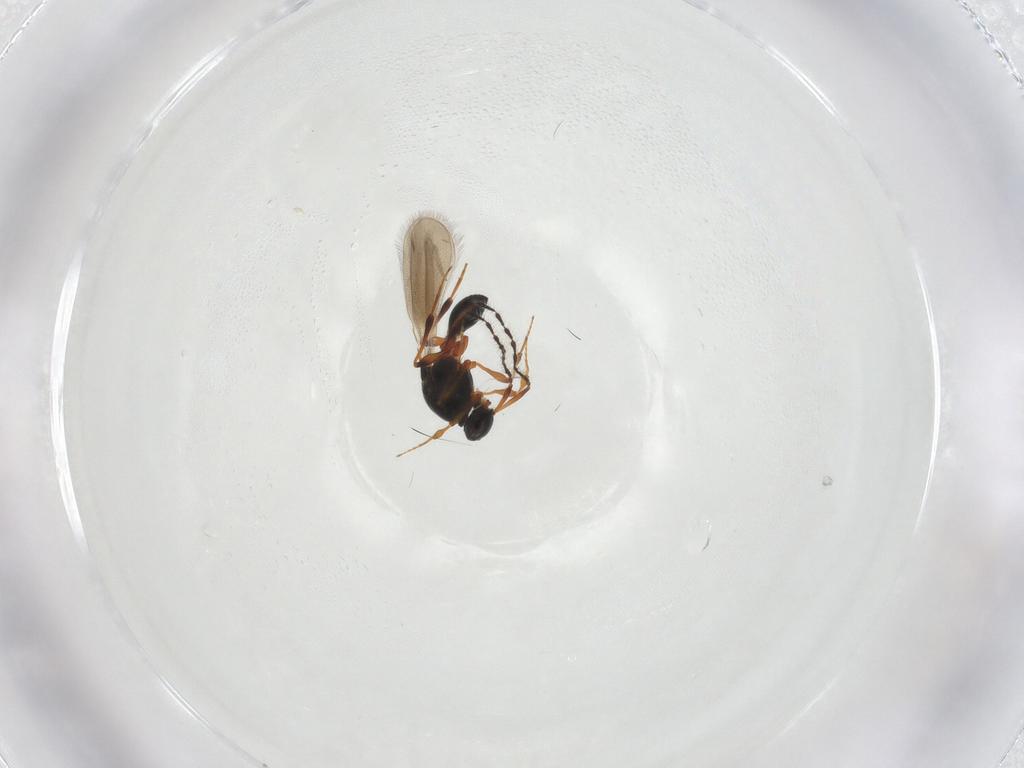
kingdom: Animalia
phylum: Arthropoda
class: Insecta
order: Hymenoptera
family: Platygastridae
